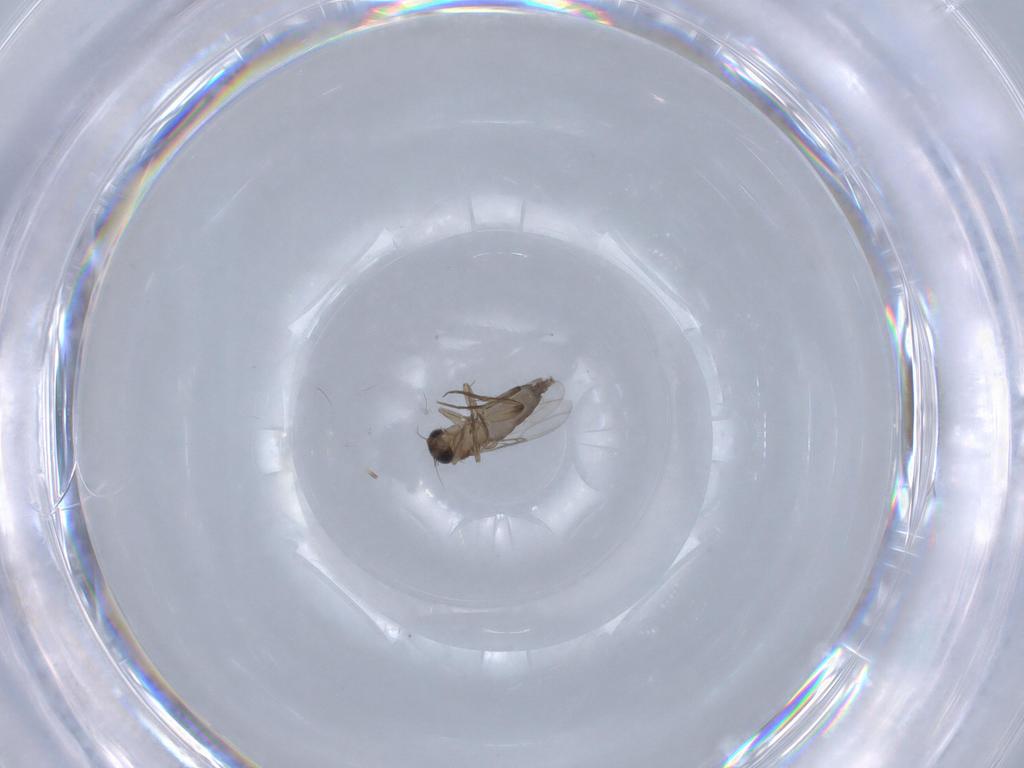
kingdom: Animalia
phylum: Arthropoda
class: Insecta
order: Diptera
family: Phoridae
